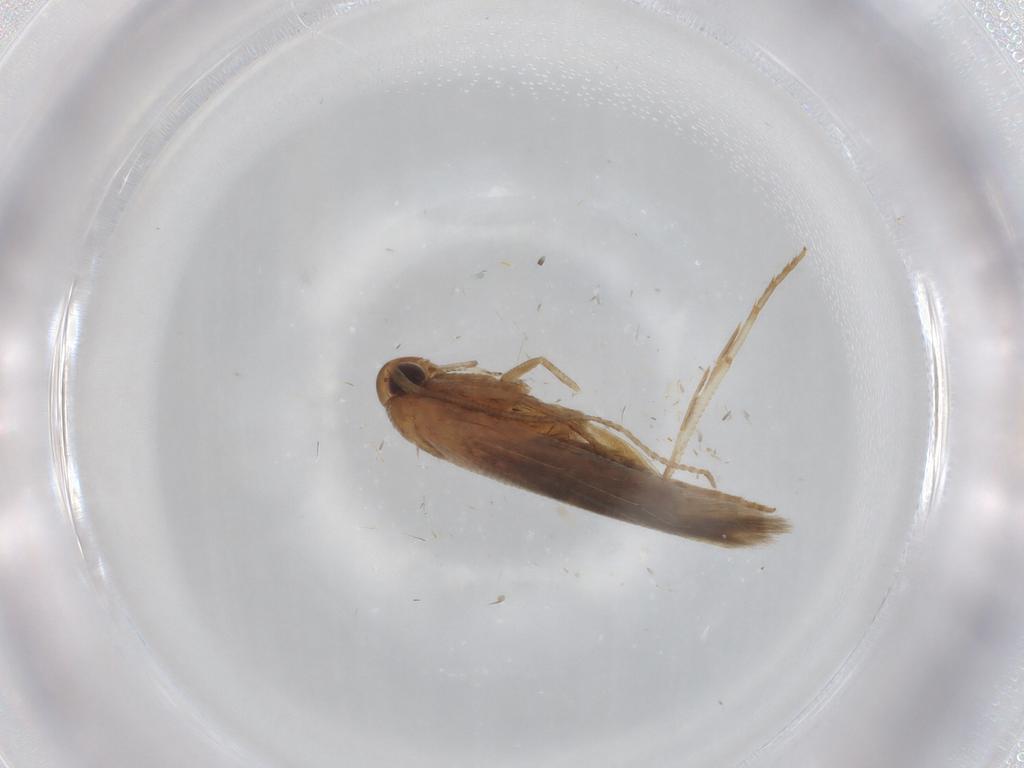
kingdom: Animalia
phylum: Arthropoda
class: Insecta
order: Lepidoptera
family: Cosmopterigidae
